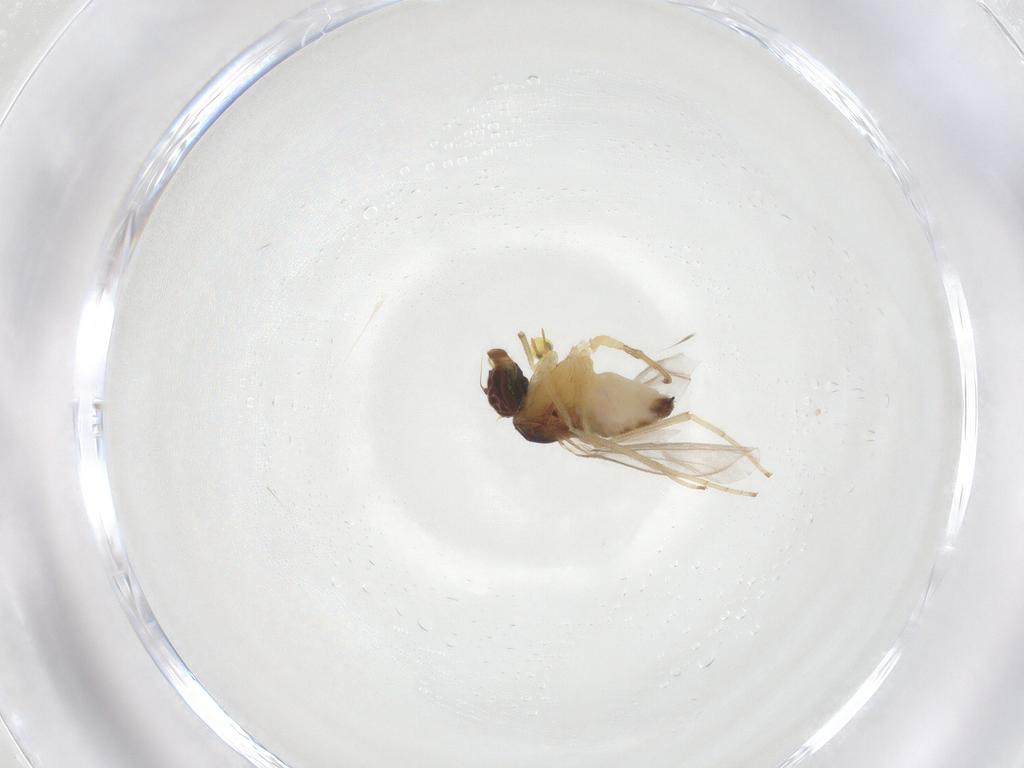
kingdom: Animalia
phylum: Arthropoda
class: Insecta
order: Diptera
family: Dolichopodidae
